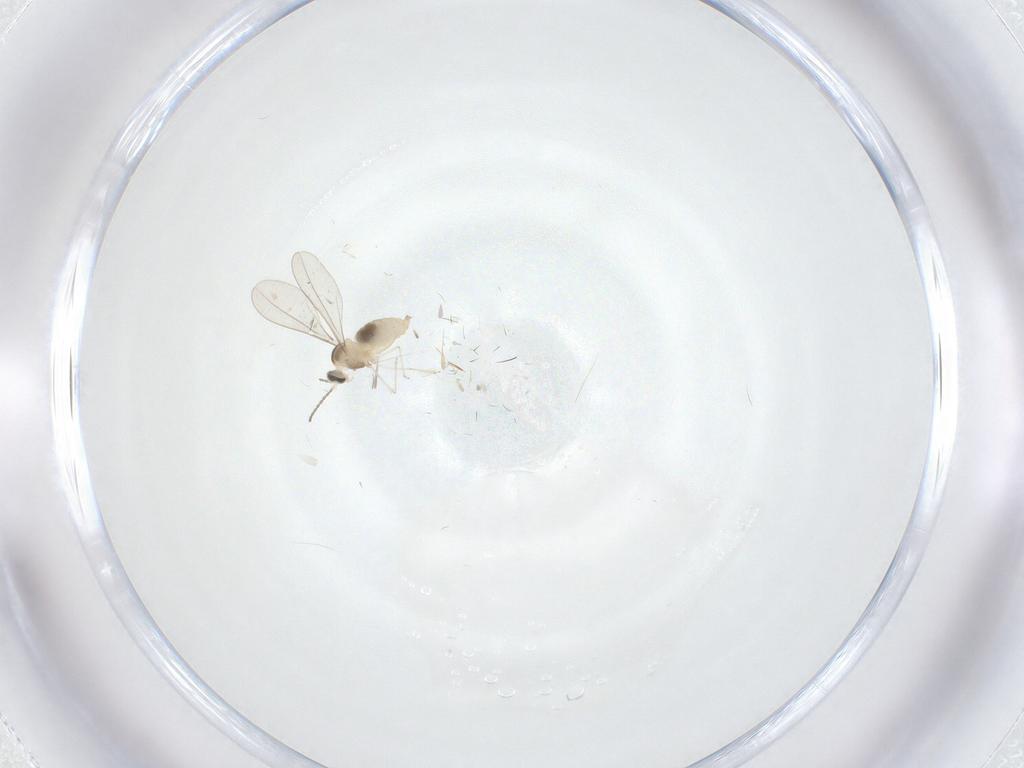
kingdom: Animalia
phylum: Arthropoda
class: Insecta
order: Diptera
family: Cecidomyiidae
